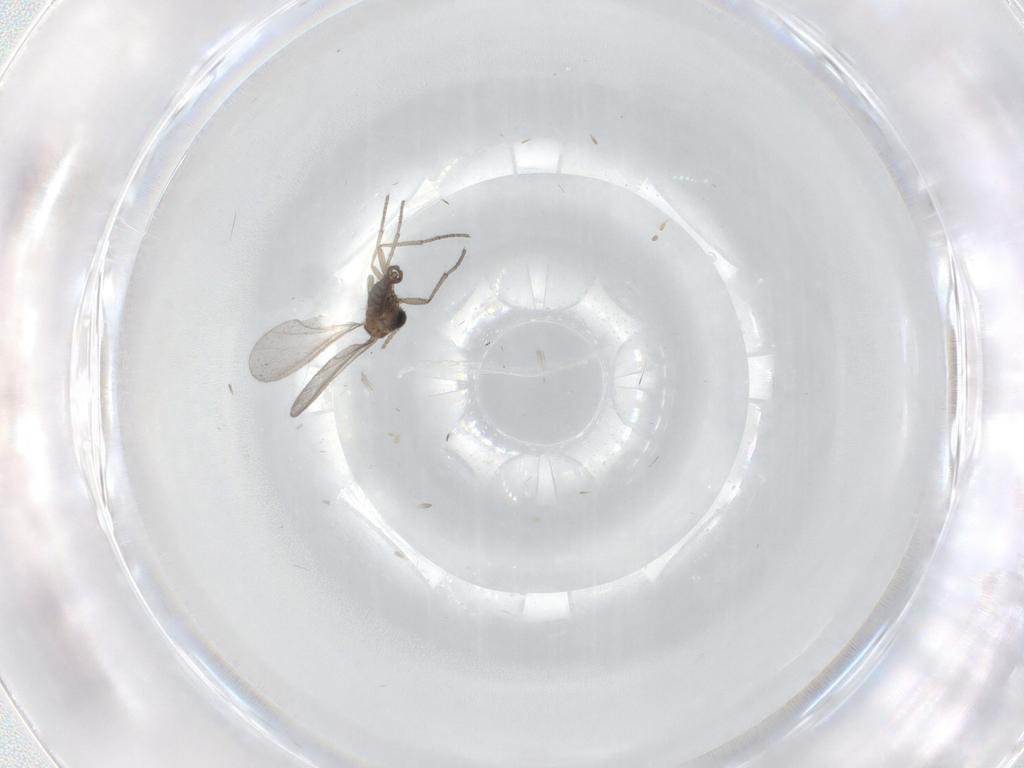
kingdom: Animalia
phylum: Arthropoda
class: Insecta
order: Diptera
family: Sciaridae
